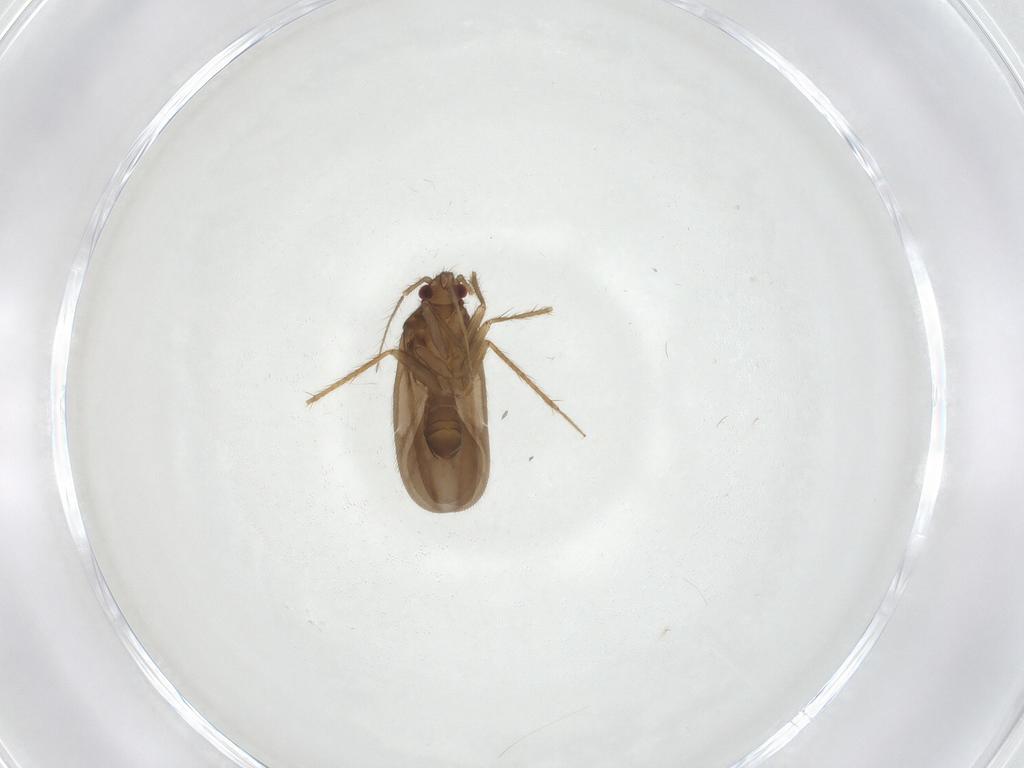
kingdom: Animalia
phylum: Arthropoda
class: Insecta
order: Hemiptera
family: Ceratocombidae
